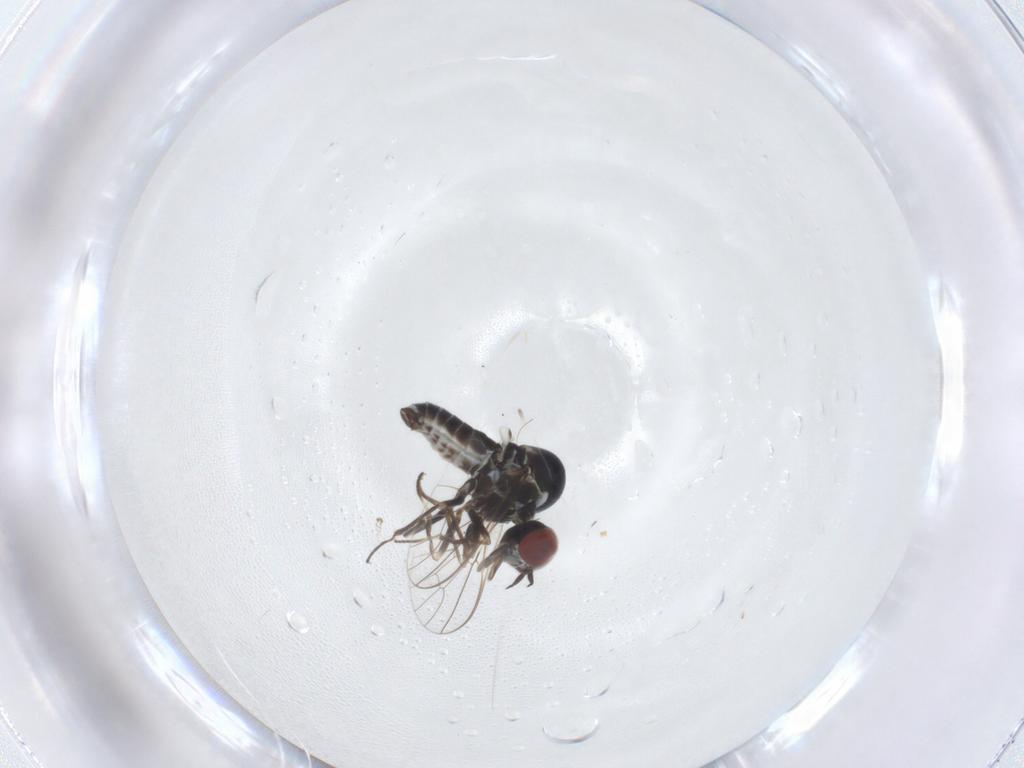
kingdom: Animalia
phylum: Arthropoda
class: Insecta
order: Diptera
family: Bombyliidae
